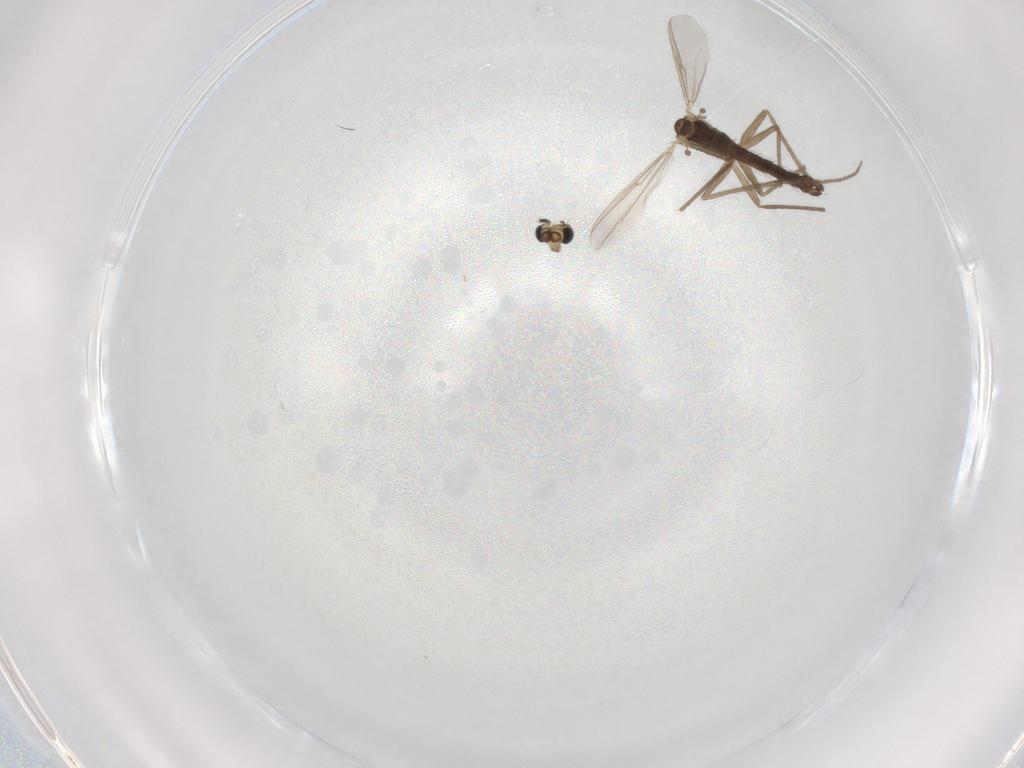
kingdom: Animalia
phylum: Arthropoda
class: Insecta
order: Diptera
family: Chironomidae
